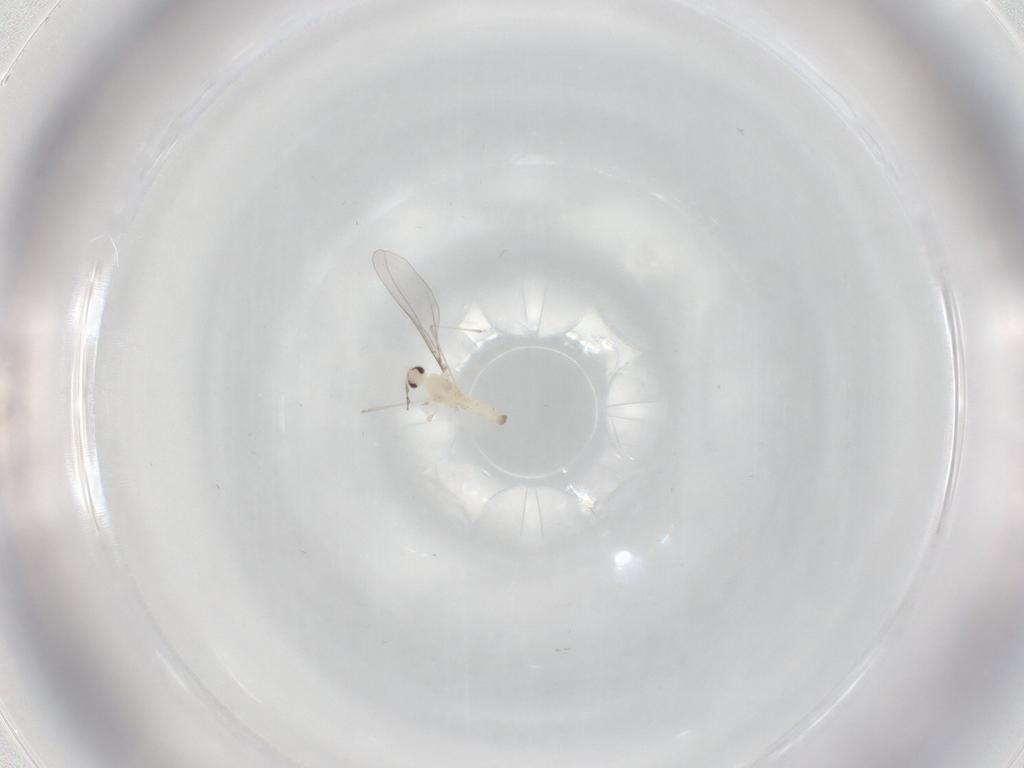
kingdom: Animalia
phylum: Arthropoda
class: Insecta
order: Diptera
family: Cecidomyiidae
